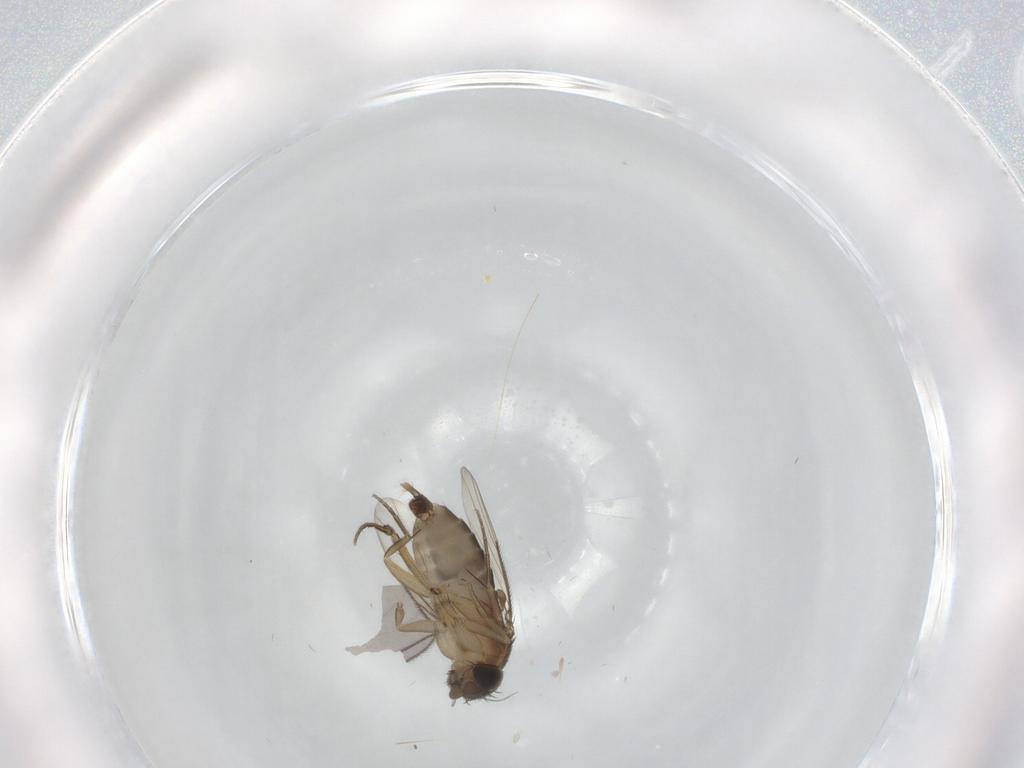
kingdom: Animalia
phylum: Arthropoda
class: Insecta
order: Diptera
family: Phoridae
